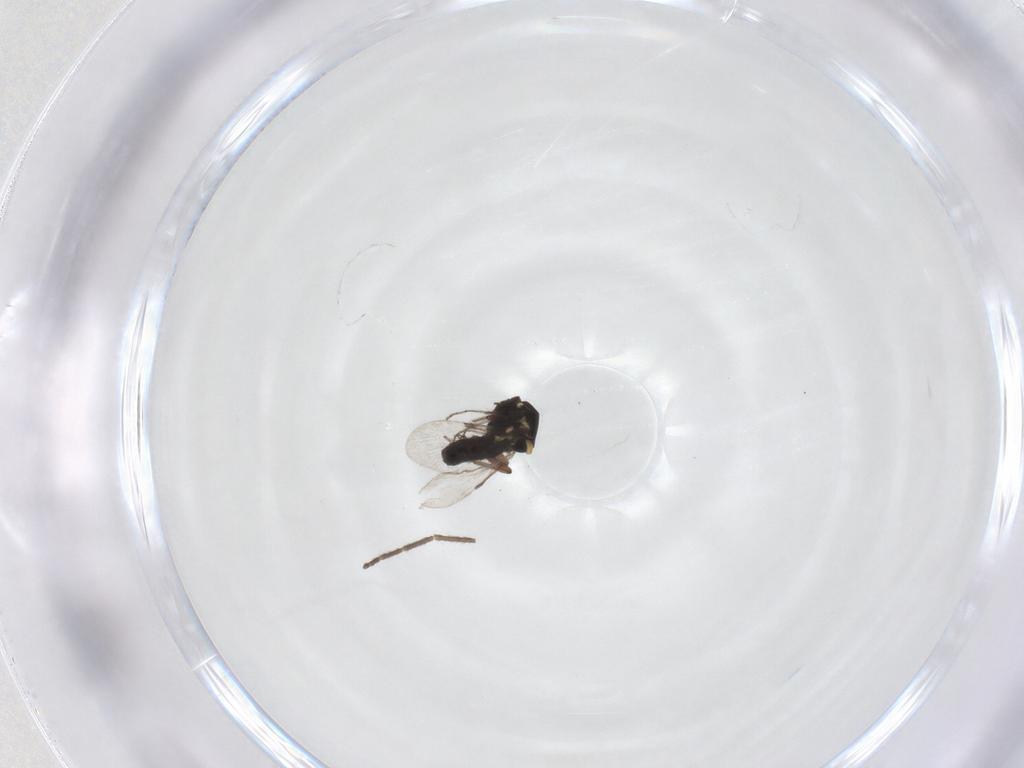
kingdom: Animalia
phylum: Arthropoda
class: Insecta
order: Diptera
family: Ceratopogonidae
